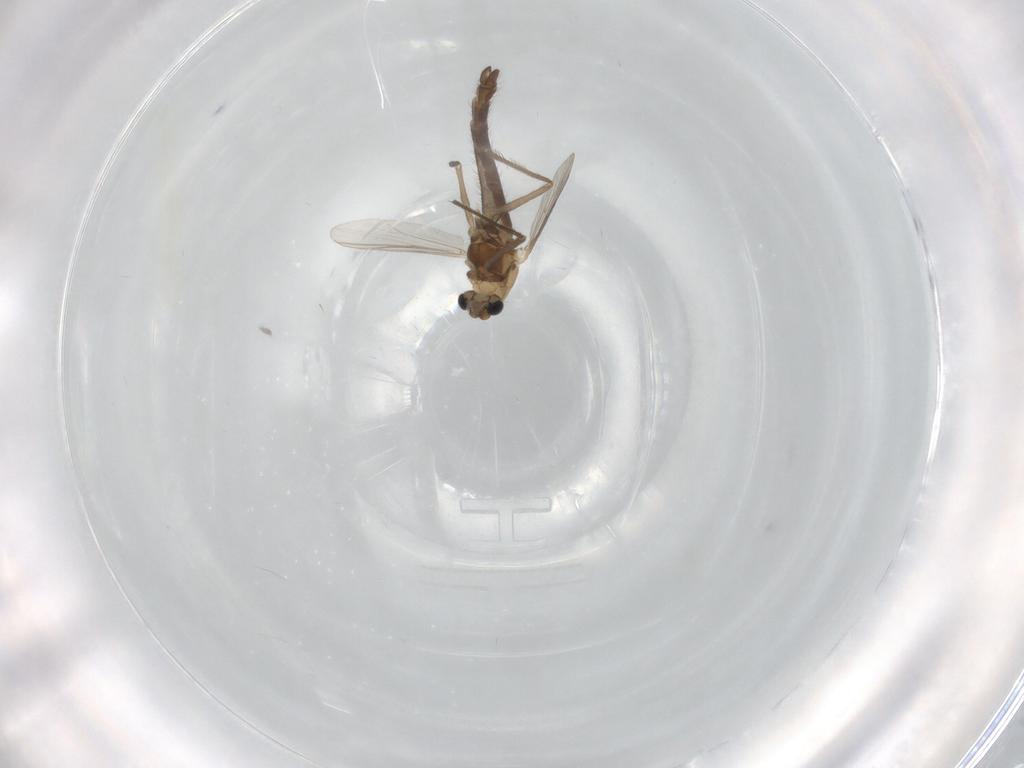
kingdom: Animalia
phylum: Arthropoda
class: Insecta
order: Diptera
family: Chironomidae
